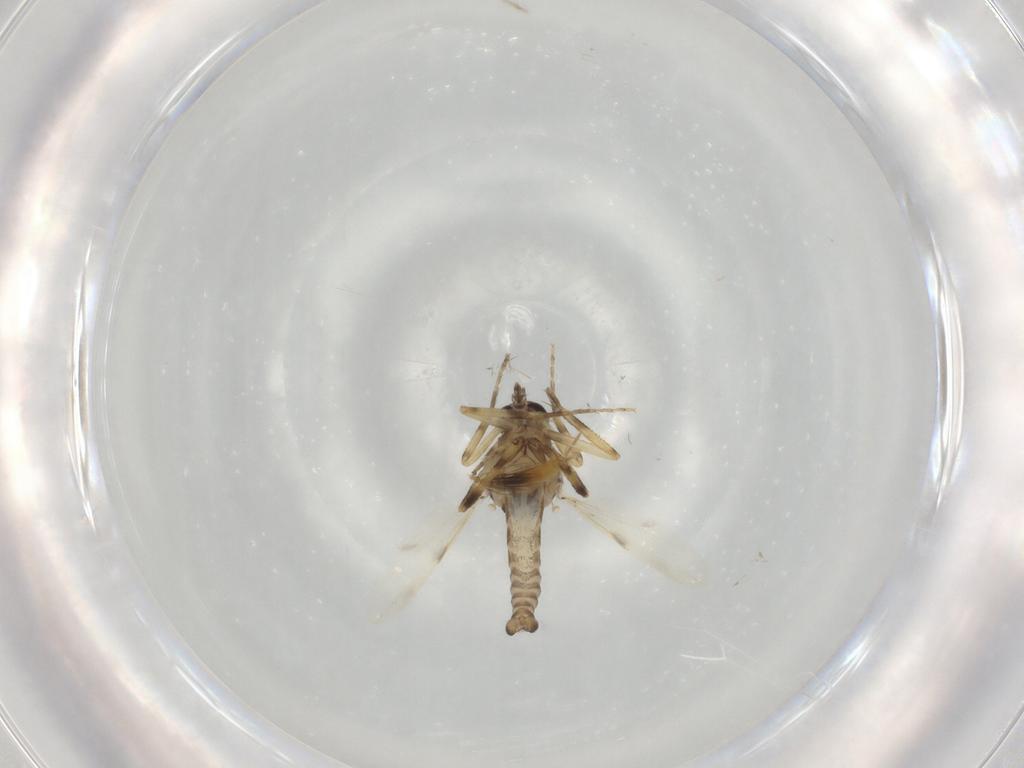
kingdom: Animalia
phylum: Arthropoda
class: Insecta
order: Diptera
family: Ceratopogonidae
